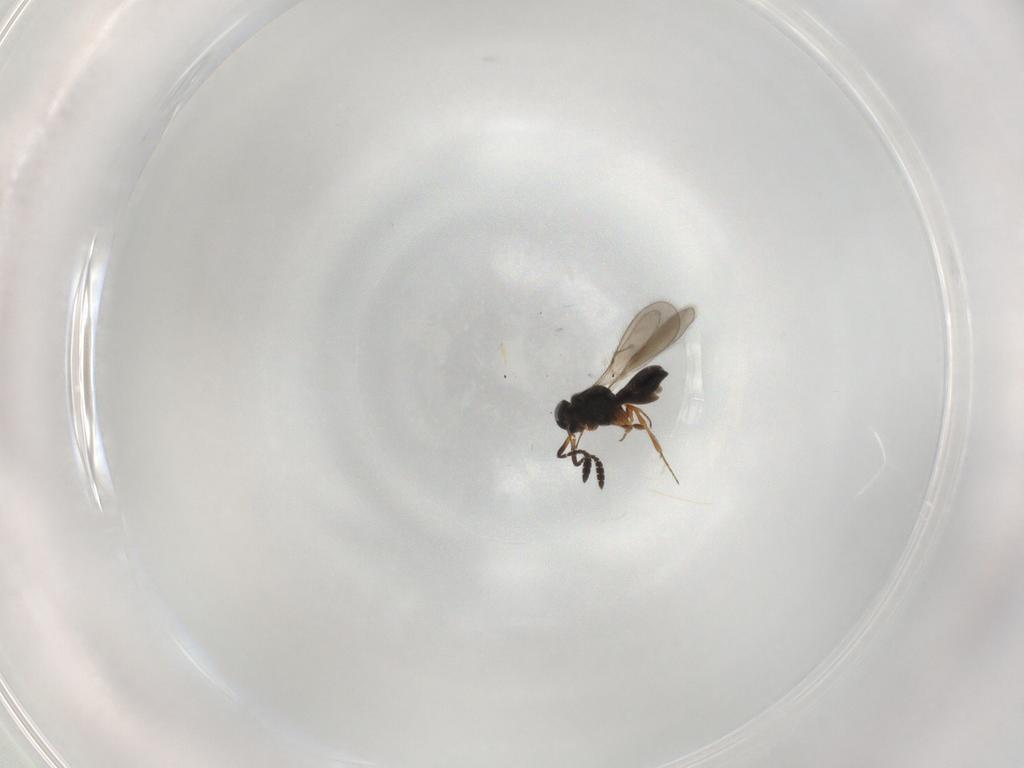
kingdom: Animalia
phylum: Arthropoda
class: Insecta
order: Hymenoptera
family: Scelionidae
